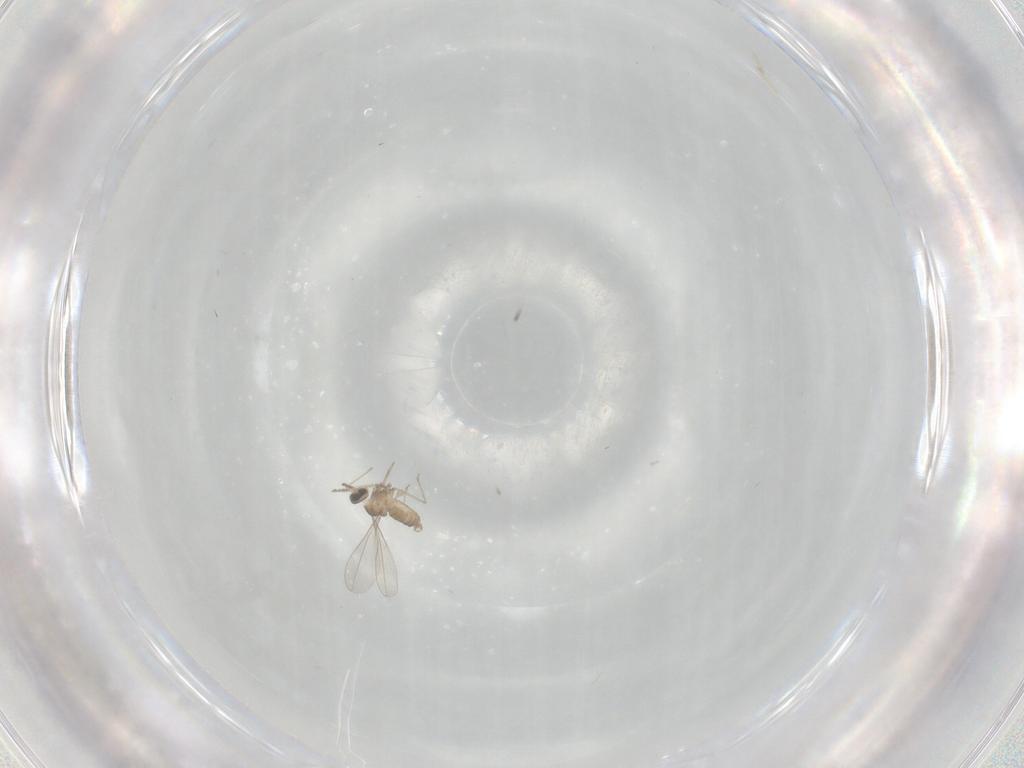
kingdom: Animalia
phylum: Arthropoda
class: Insecta
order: Diptera
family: Cecidomyiidae
